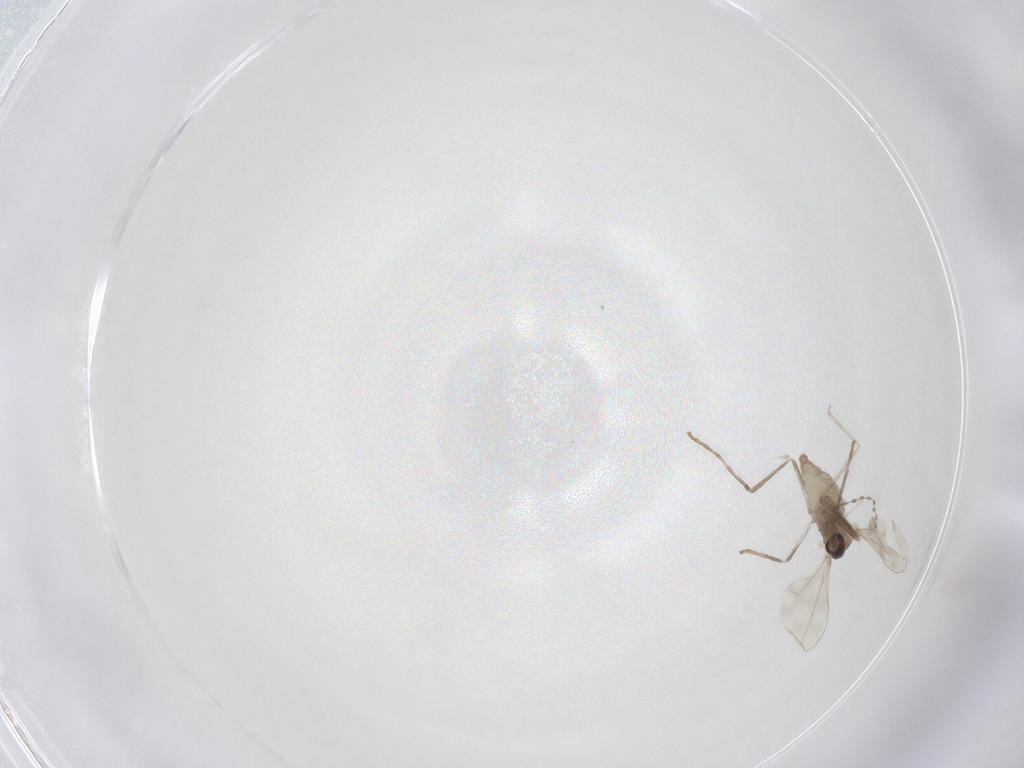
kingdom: Animalia
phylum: Arthropoda
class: Insecta
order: Diptera
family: Cecidomyiidae
